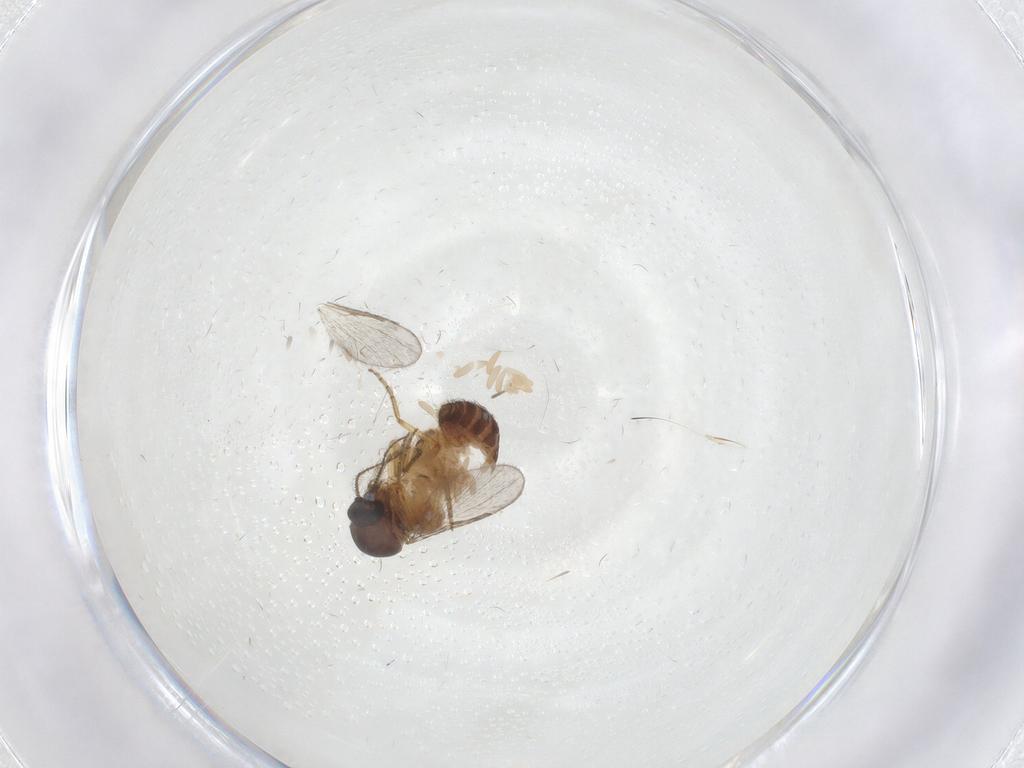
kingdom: Animalia
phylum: Arthropoda
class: Insecta
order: Diptera
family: Ceratopogonidae
